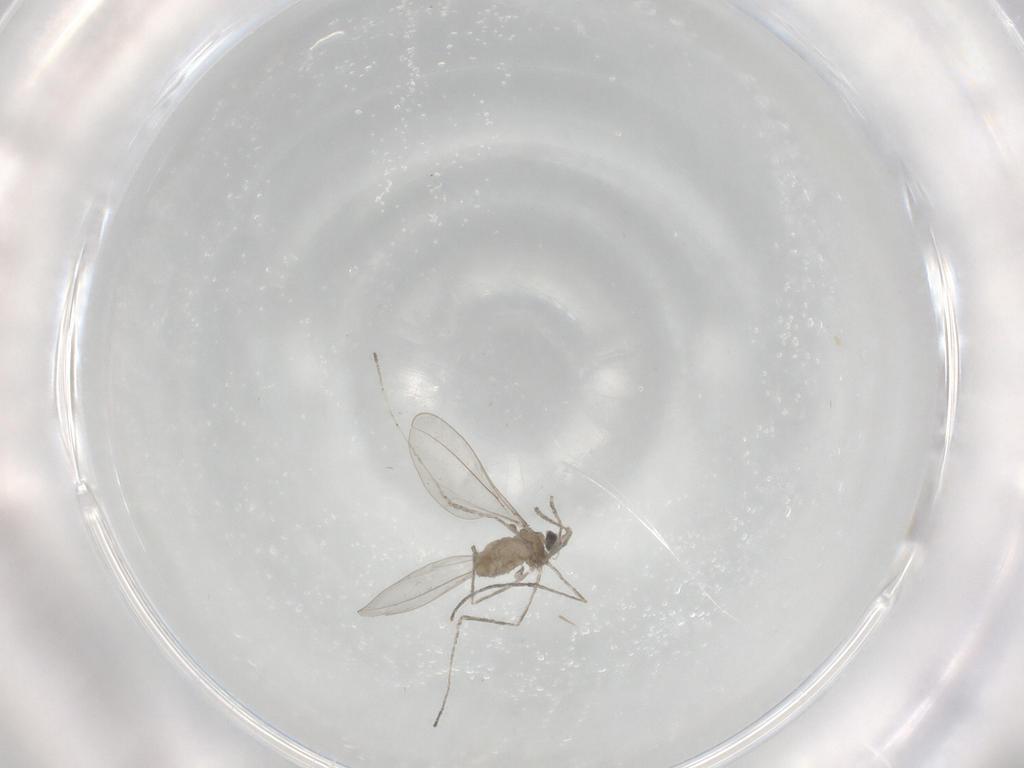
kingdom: Animalia
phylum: Arthropoda
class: Insecta
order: Diptera
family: Cecidomyiidae
